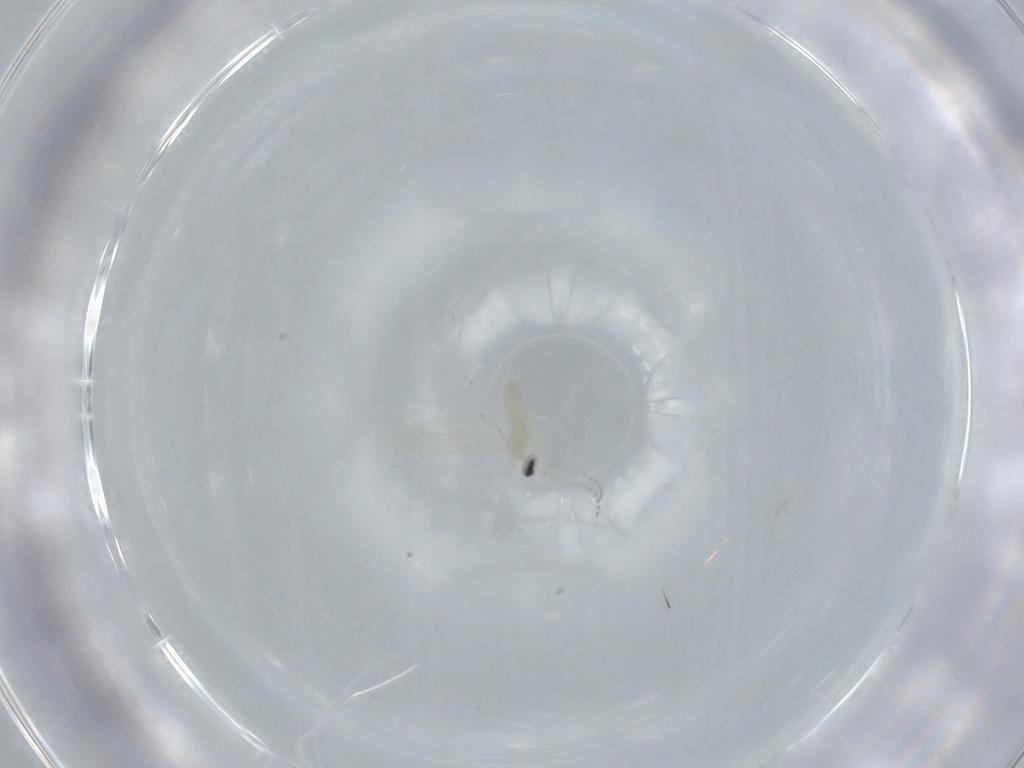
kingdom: Animalia
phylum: Arthropoda
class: Insecta
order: Diptera
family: Cecidomyiidae
